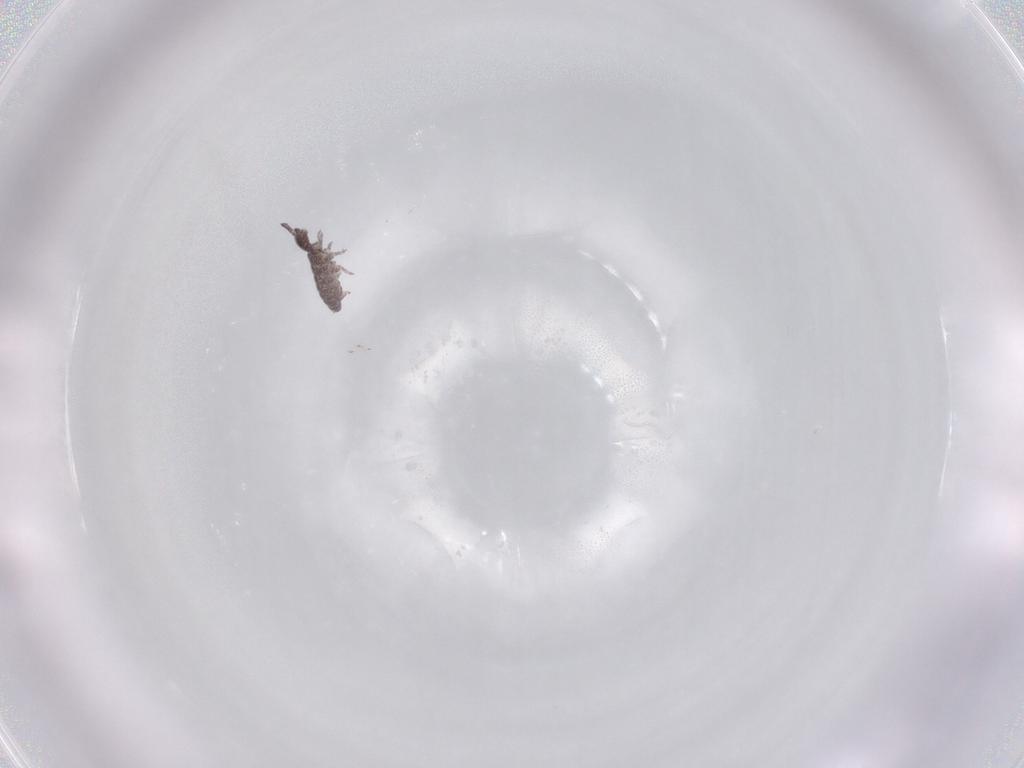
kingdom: Animalia
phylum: Arthropoda
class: Collembola
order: Poduromorpha
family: Hypogastruridae
